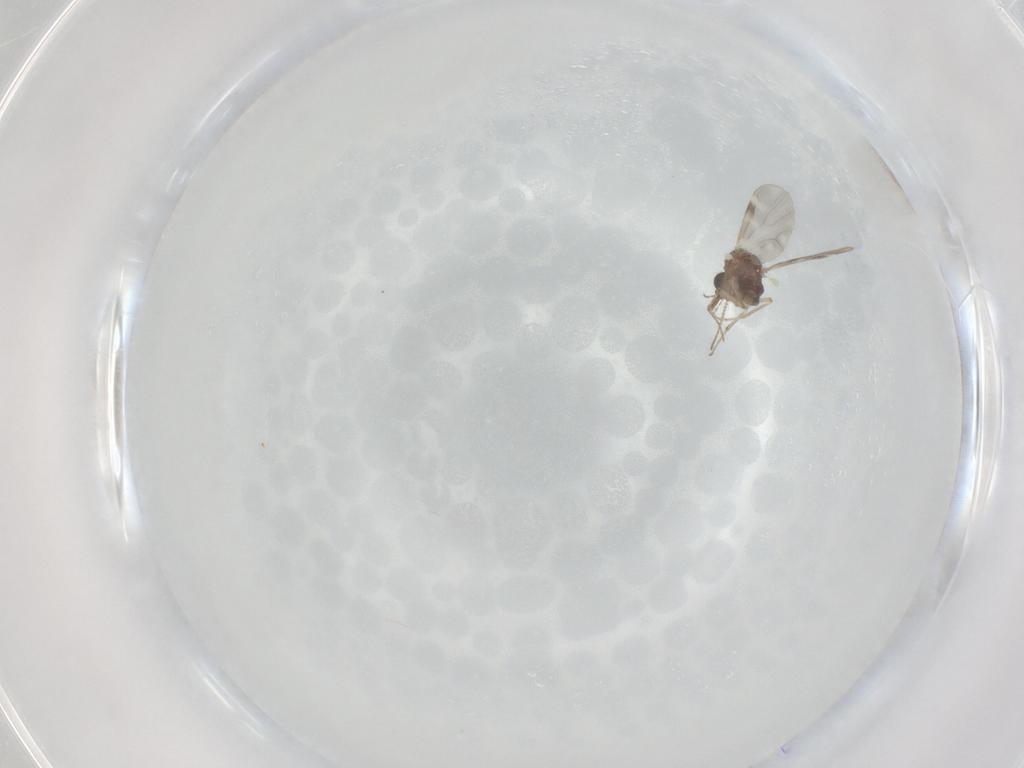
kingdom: Animalia
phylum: Arthropoda
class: Insecta
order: Diptera
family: Ceratopogonidae
